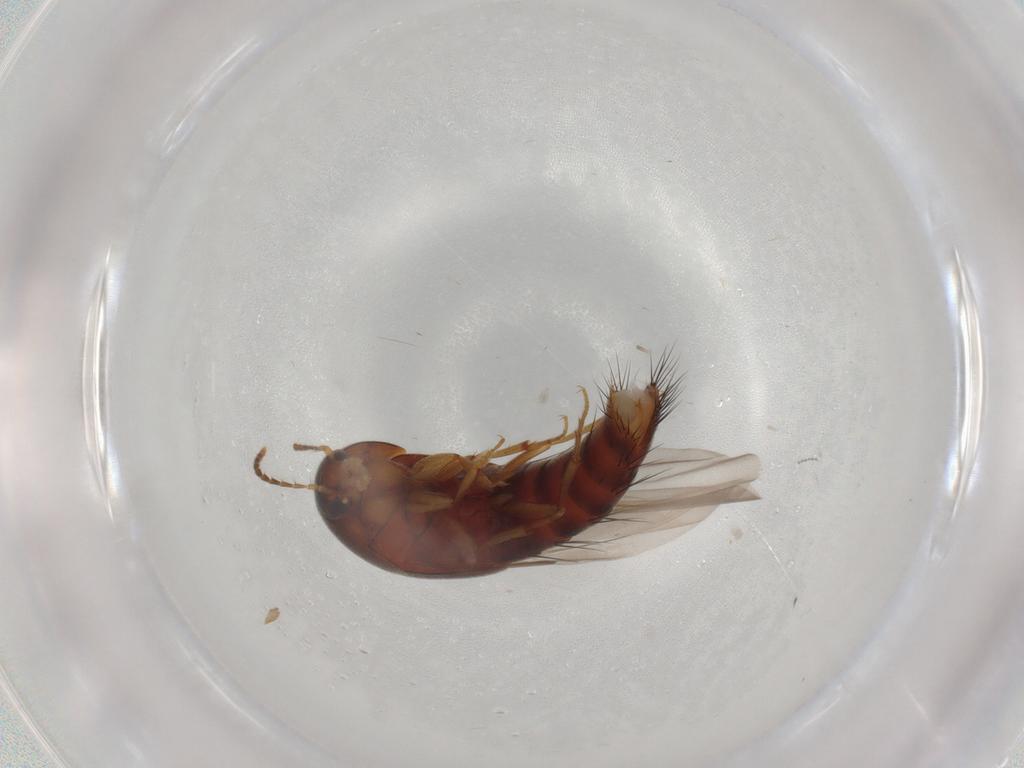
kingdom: Animalia
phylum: Arthropoda
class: Insecta
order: Coleoptera
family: Staphylinidae
